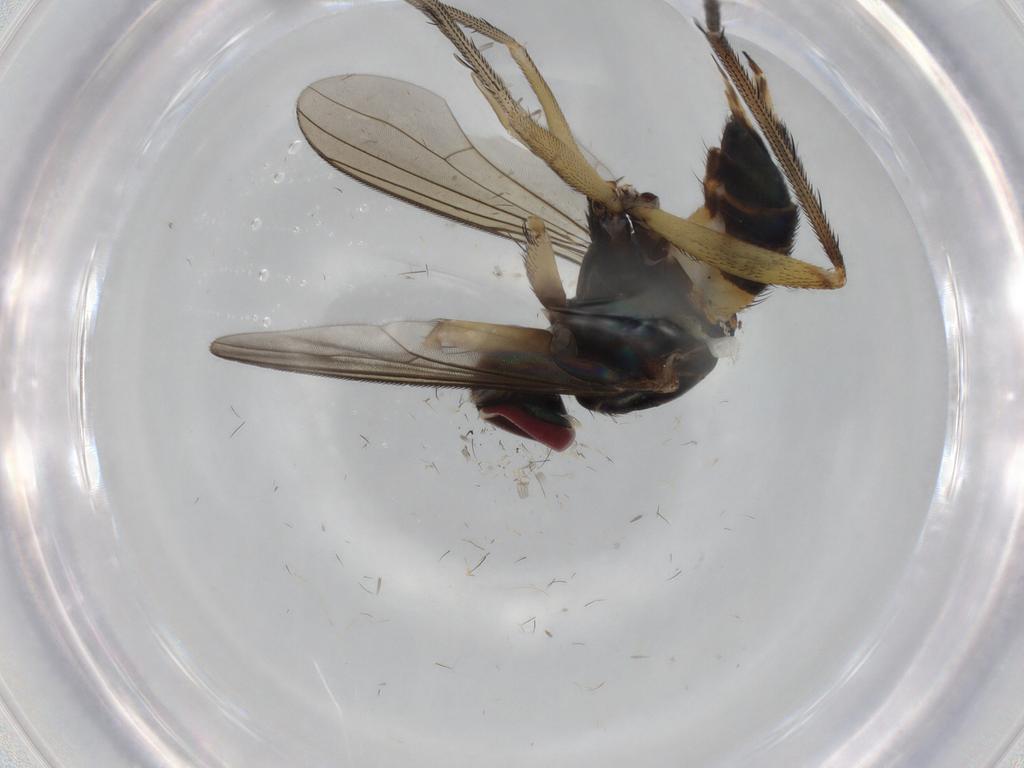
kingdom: Animalia
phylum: Arthropoda
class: Insecta
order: Diptera
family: Dolichopodidae
